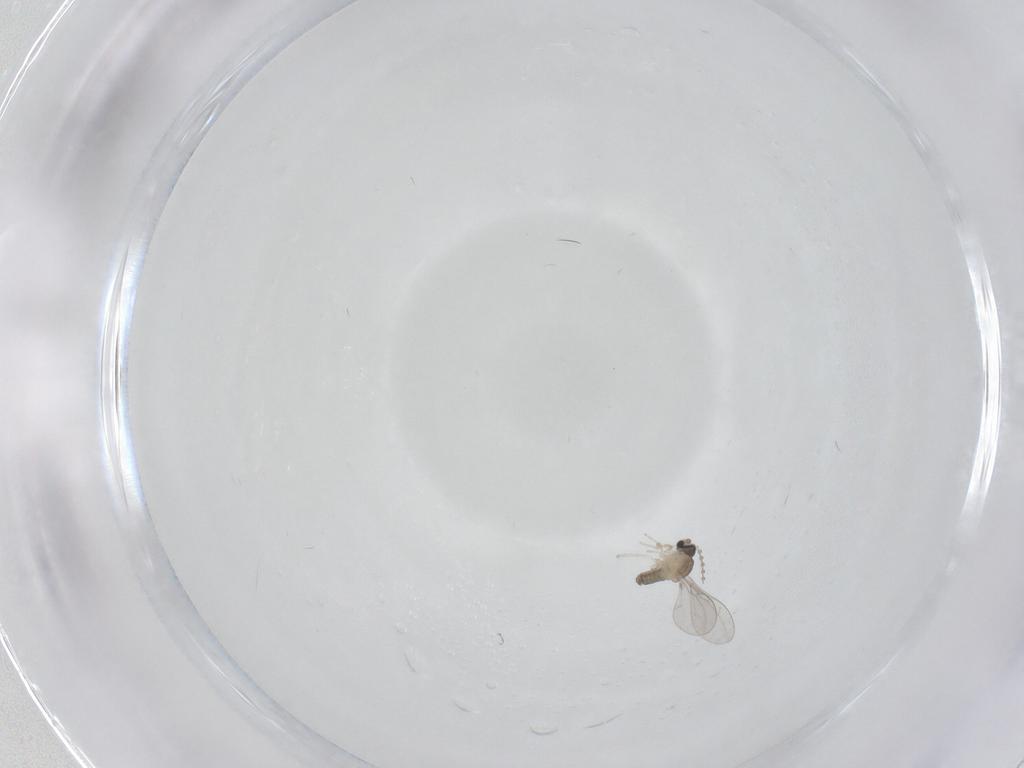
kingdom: Animalia
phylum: Arthropoda
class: Insecta
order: Diptera
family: Cecidomyiidae
